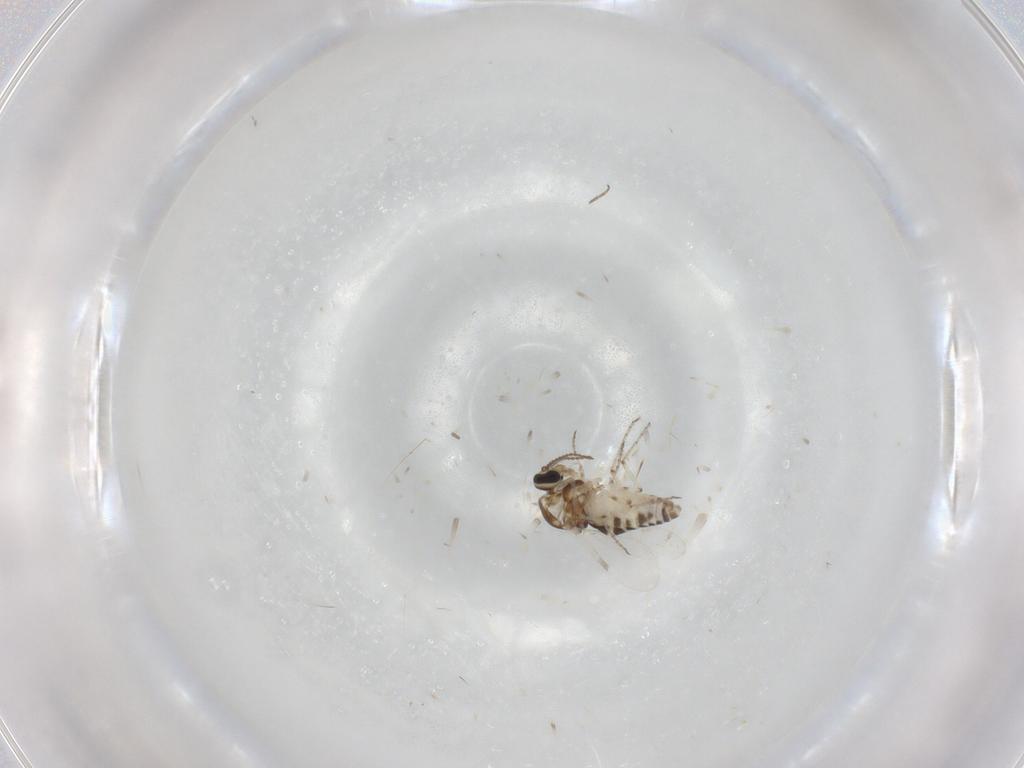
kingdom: Animalia
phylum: Arthropoda
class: Insecta
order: Diptera
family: Ceratopogonidae
